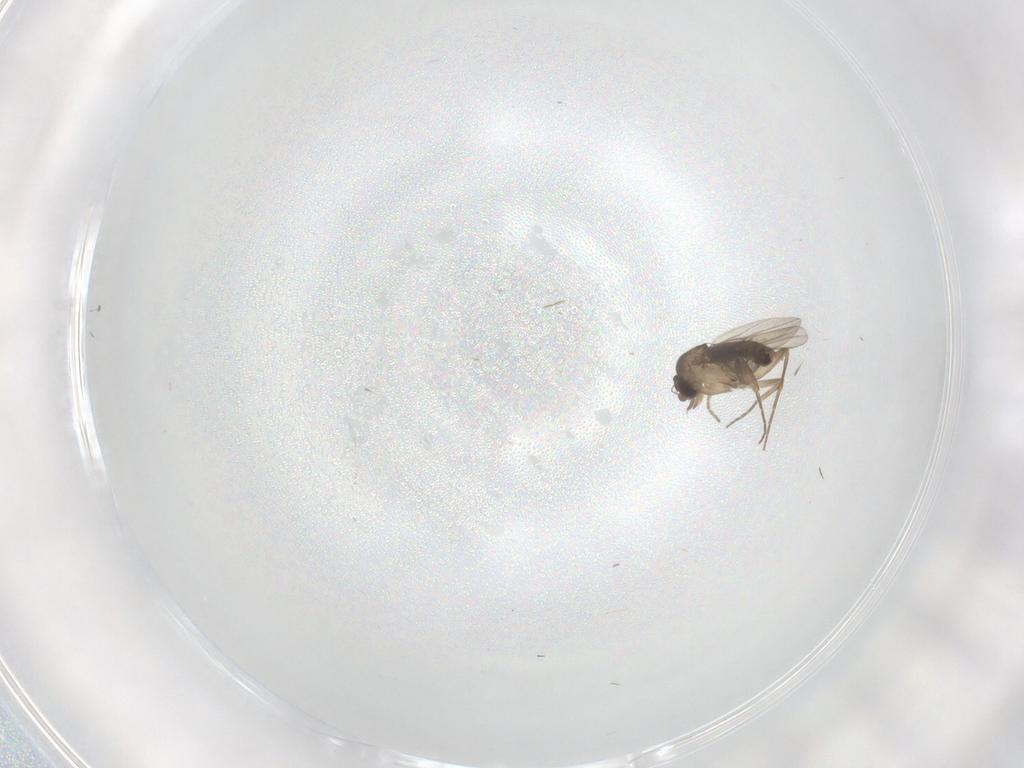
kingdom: Animalia
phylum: Arthropoda
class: Insecta
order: Diptera
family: Phoridae
